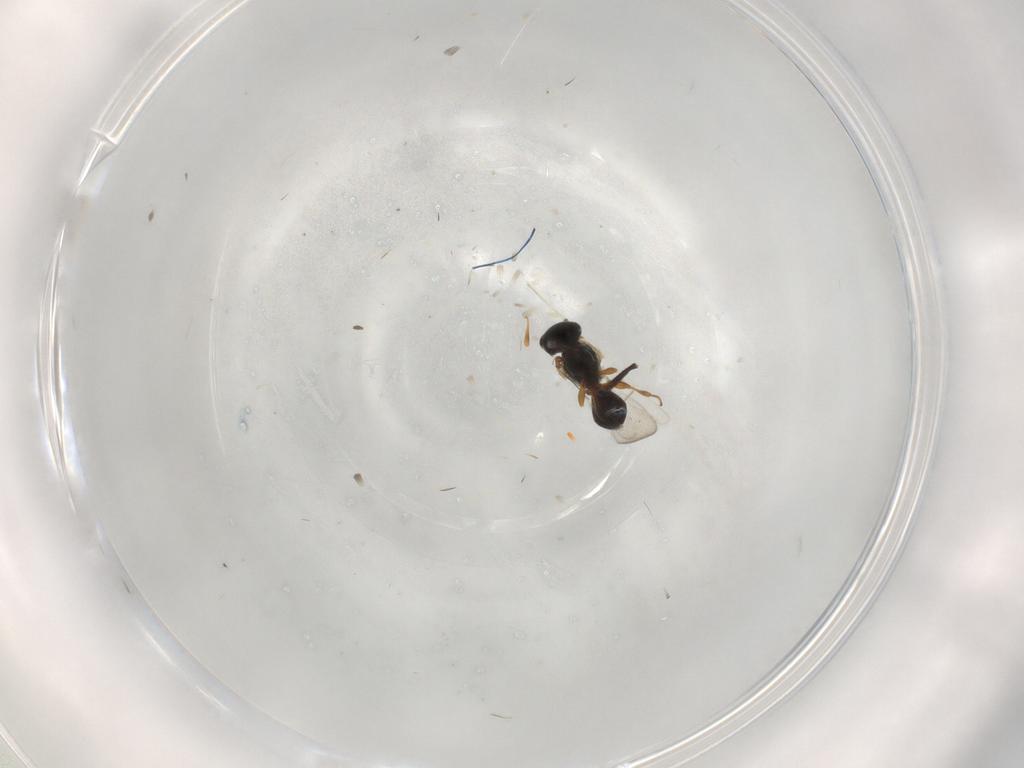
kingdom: Animalia
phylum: Arthropoda
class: Insecta
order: Hymenoptera
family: Platygastridae
